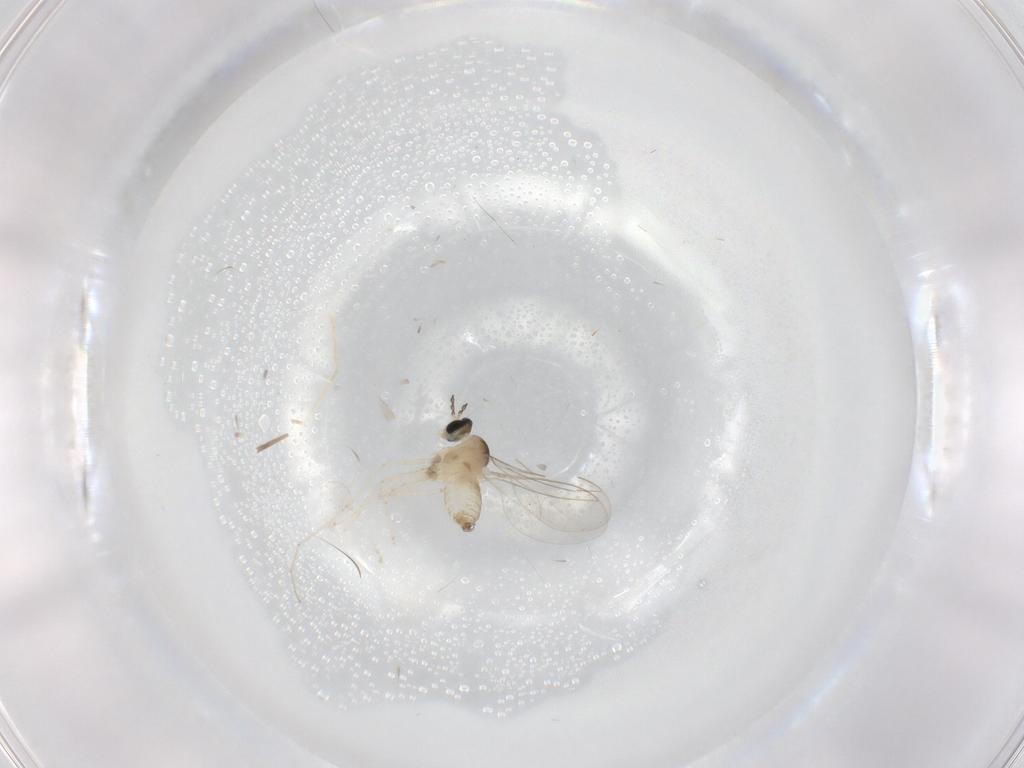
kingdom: Animalia
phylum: Arthropoda
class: Insecta
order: Diptera
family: Cecidomyiidae
